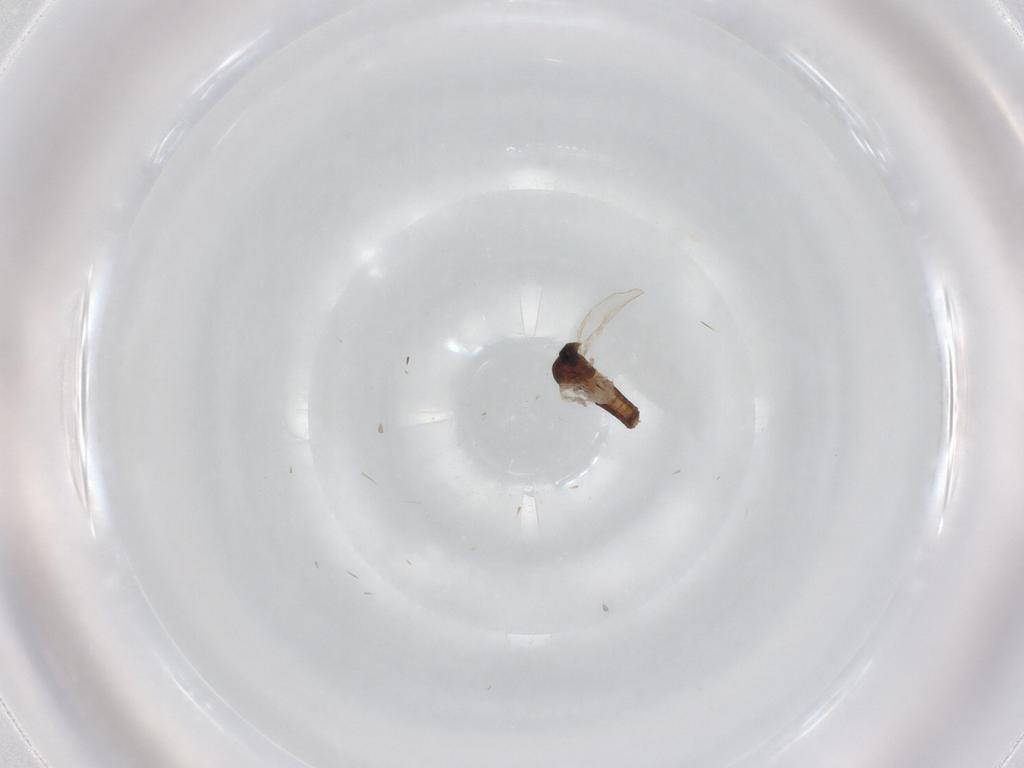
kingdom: Animalia
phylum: Arthropoda
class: Insecta
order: Diptera
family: Ceratopogonidae
